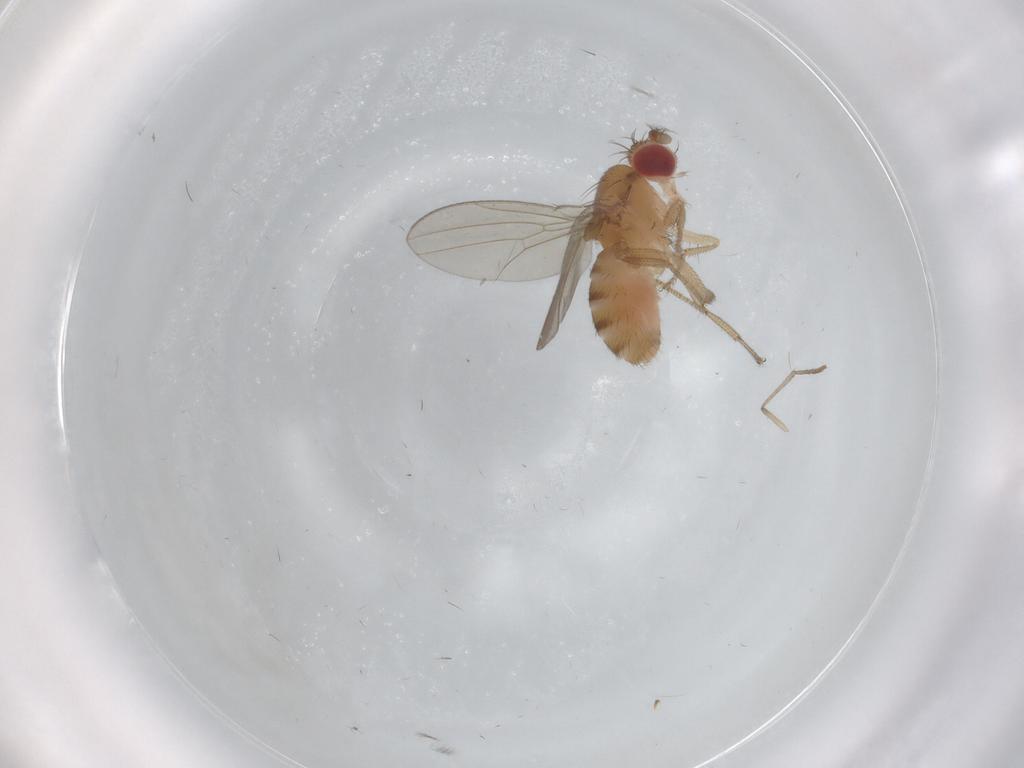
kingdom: Animalia
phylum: Arthropoda
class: Insecta
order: Diptera
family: Drosophilidae
